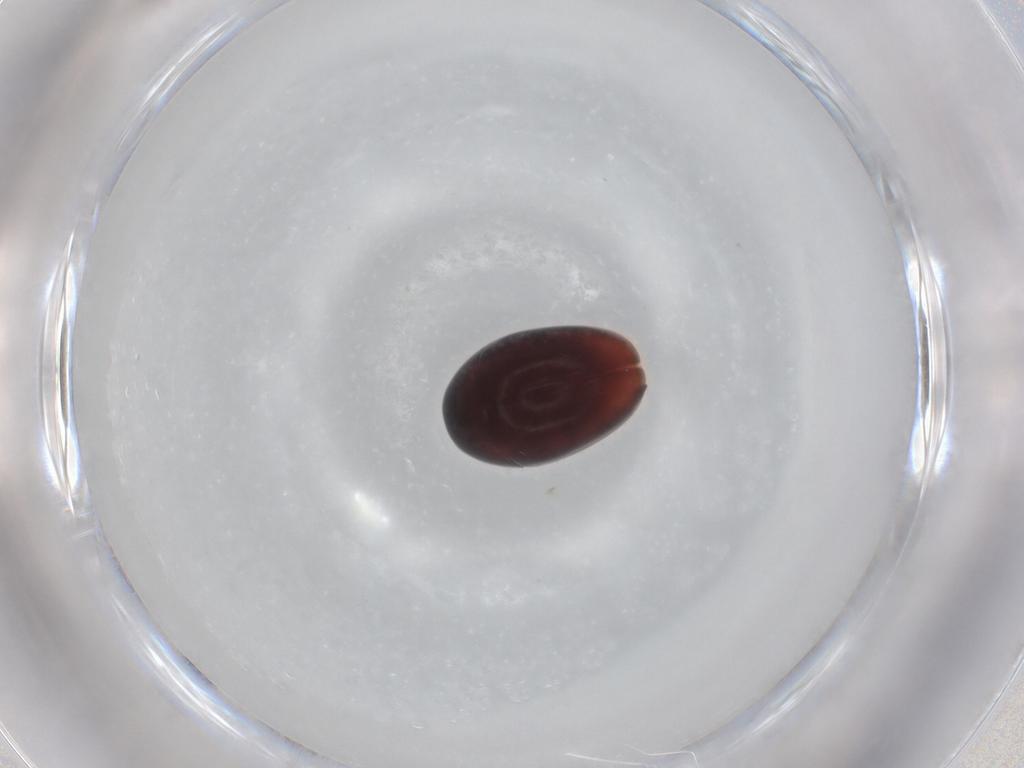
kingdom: Animalia
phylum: Arthropoda
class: Insecta
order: Coleoptera
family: Phalacridae
